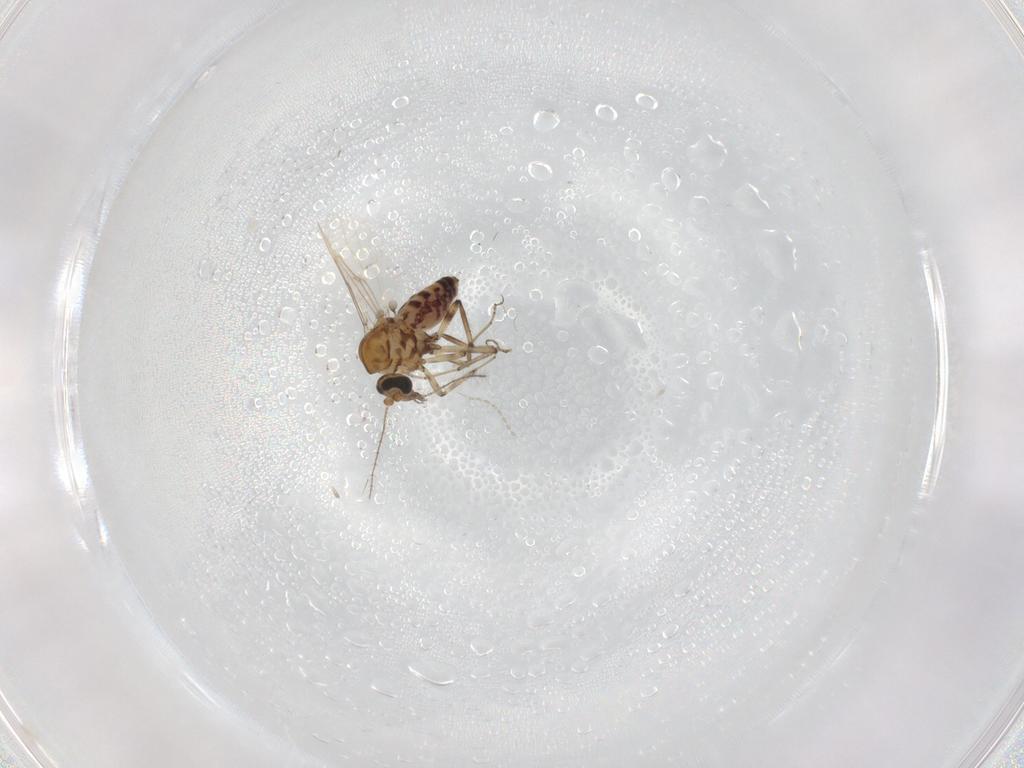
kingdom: Animalia
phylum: Arthropoda
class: Insecta
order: Diptera
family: Ceratopogonidae
